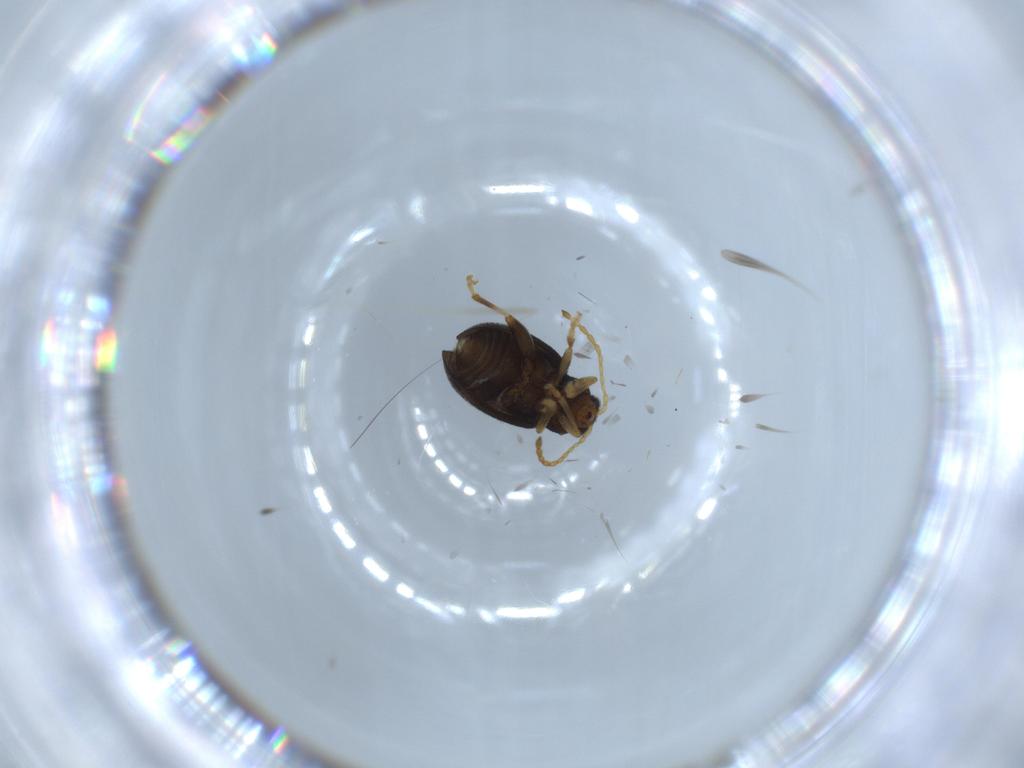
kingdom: Animalia
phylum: Arthropoda
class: Insecta
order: Coleoptera
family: Chrysomelidae
